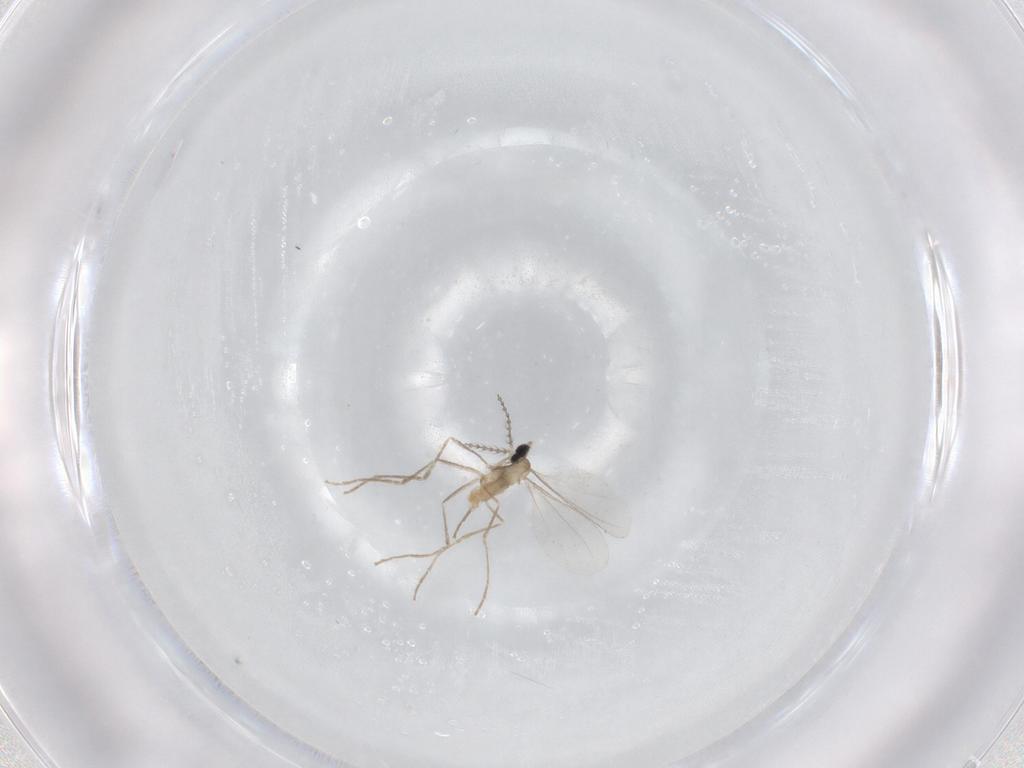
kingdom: Animalia
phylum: Arthropoda
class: Insecta
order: Diptera
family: Cecidomyiidae
